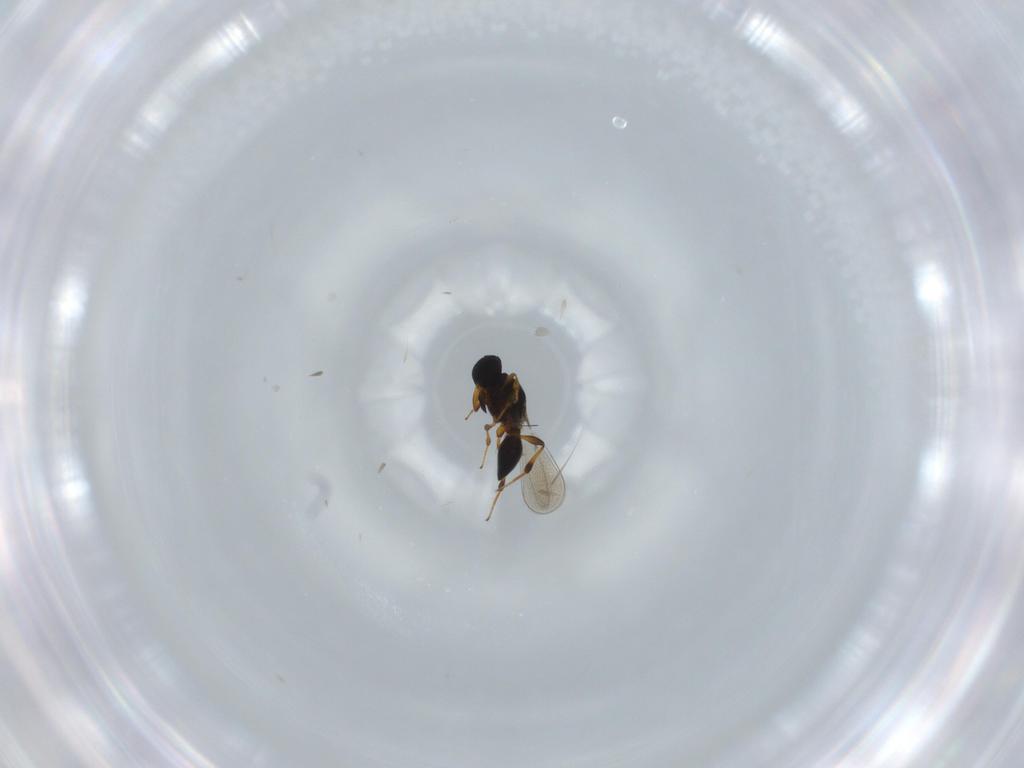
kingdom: Animalia
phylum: Arthropoda
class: Insecta
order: Hymenoptera
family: Platygastridae
